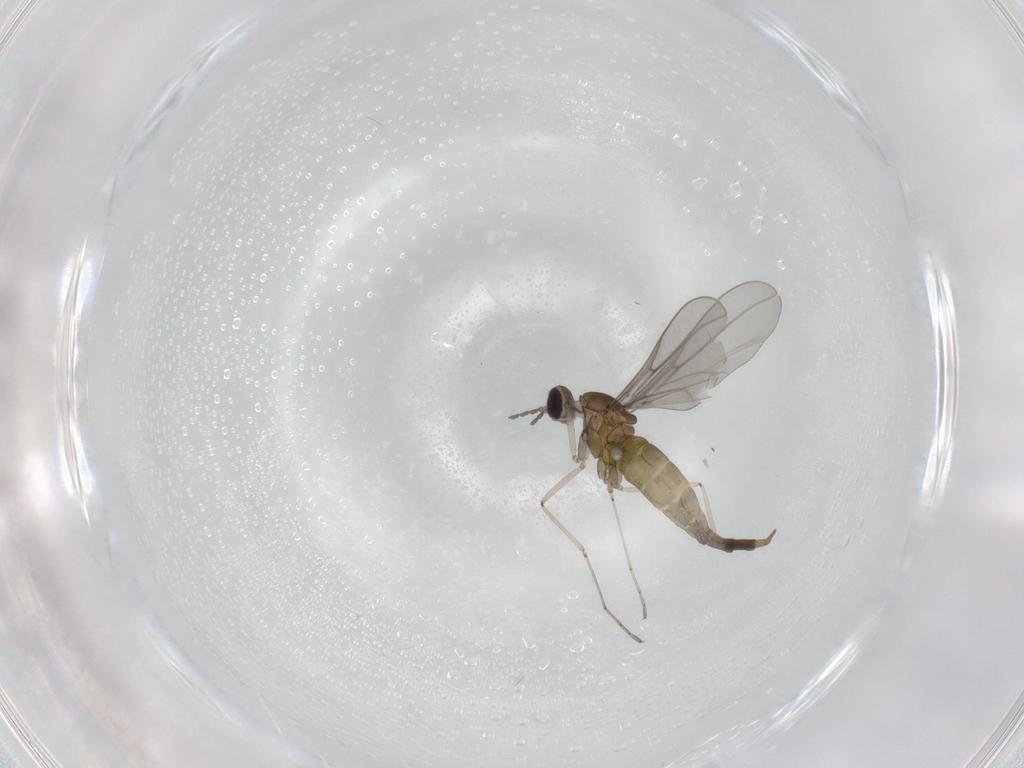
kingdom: Animalia
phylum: Arthropoda
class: Insecta
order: Diptera
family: Cecidomyiidae
